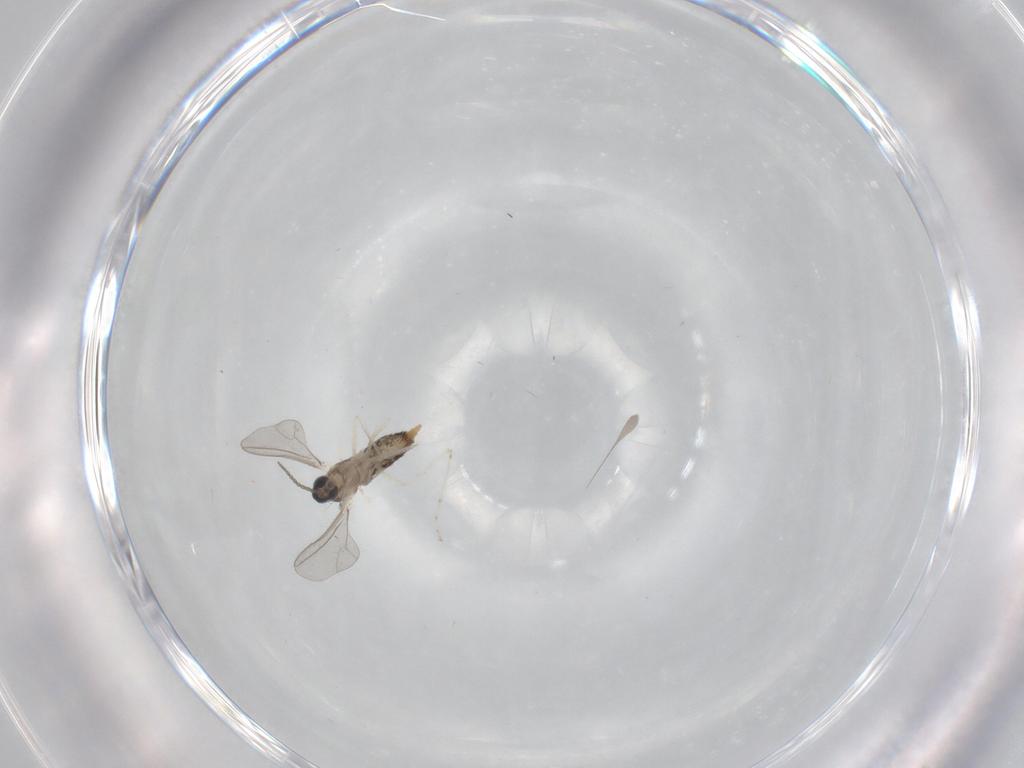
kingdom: Animalia
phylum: Arthropoda
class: Insecta
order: Diptera
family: Cecidomyiidae
